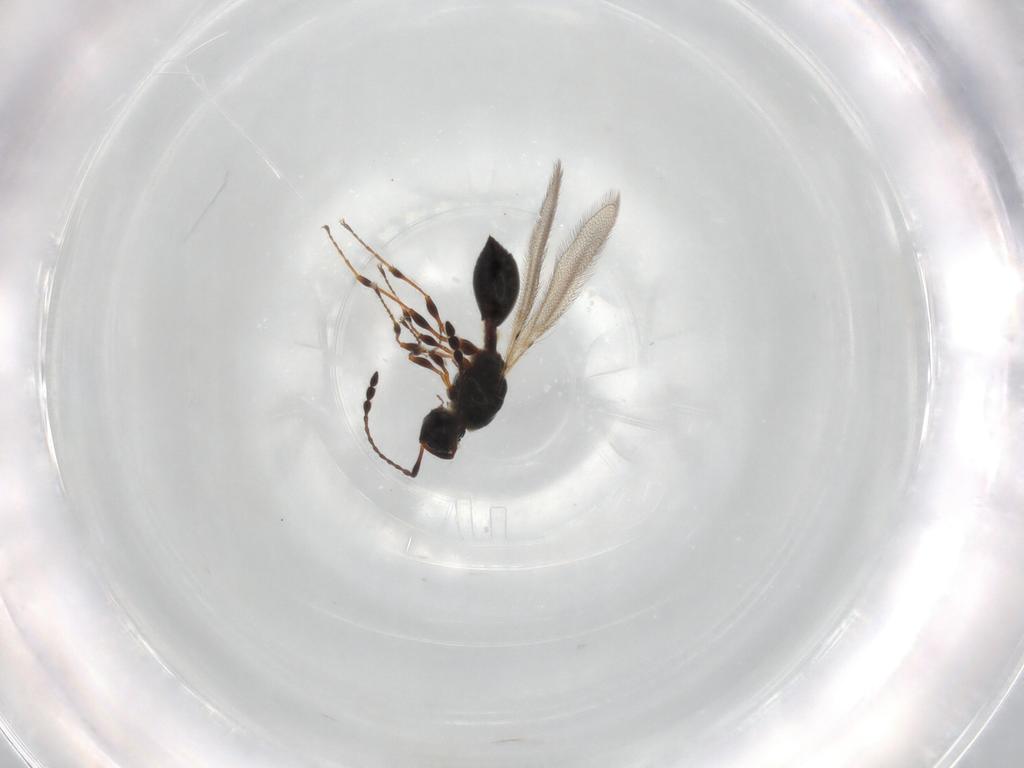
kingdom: Animalia
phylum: Arthropoda
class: Insecta
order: Hymenoptera
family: Diapriidae
